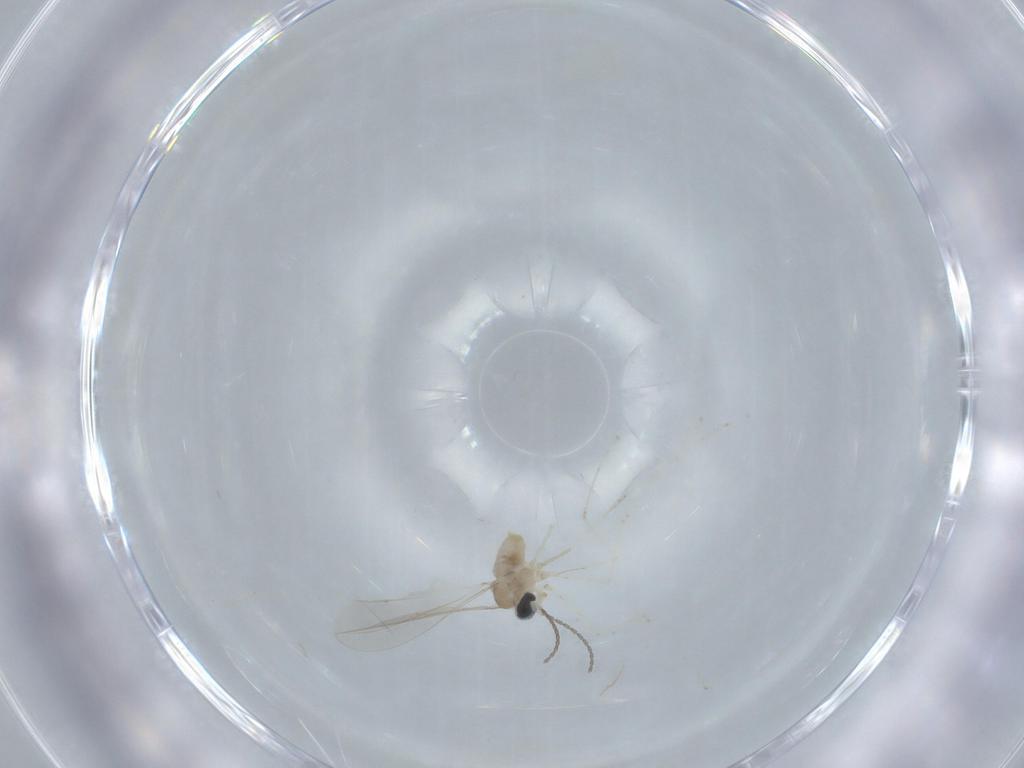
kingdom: Animalia
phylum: Arthropoda
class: Insecta
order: Diptera
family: Cecidomyiidae
